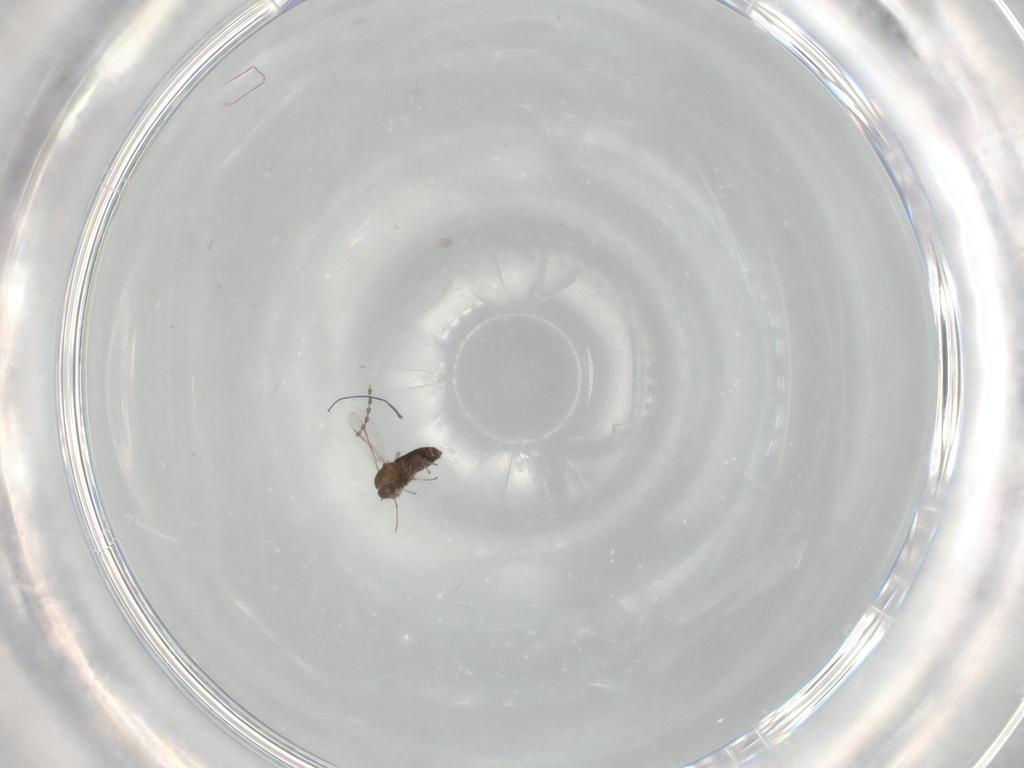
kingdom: Animalia
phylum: Arthropoda
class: Insecta
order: Diptera
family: Chironomidae
